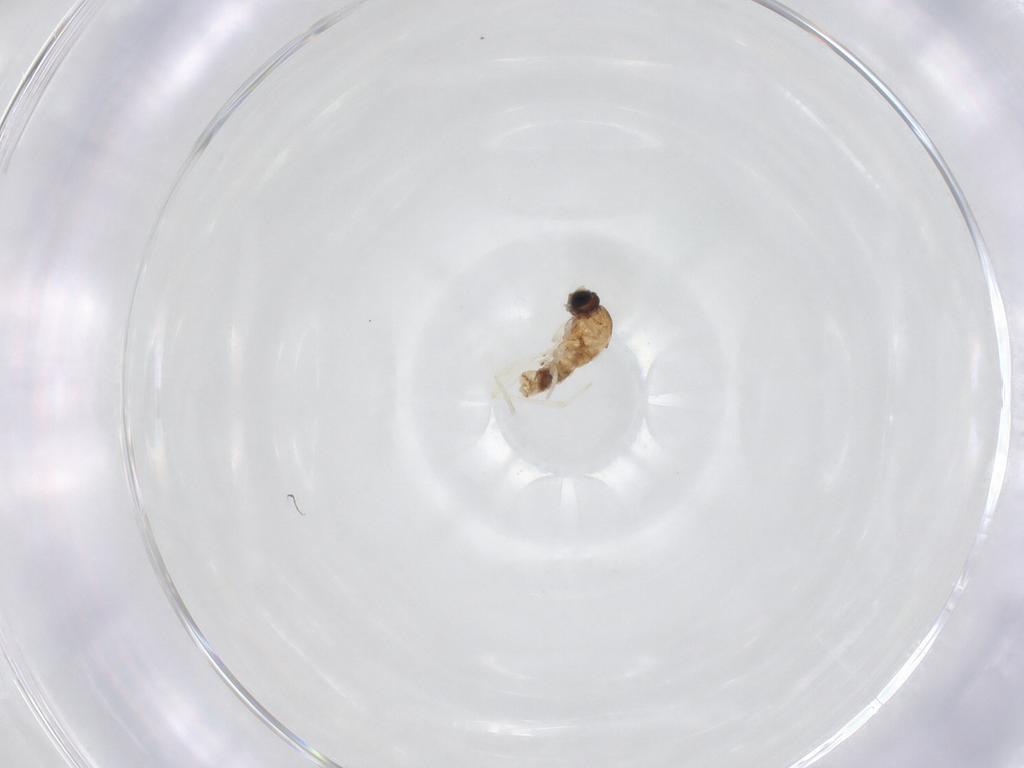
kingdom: Animalia
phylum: Arthropoda
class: Insecta
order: Diptera
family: Sciaridae
